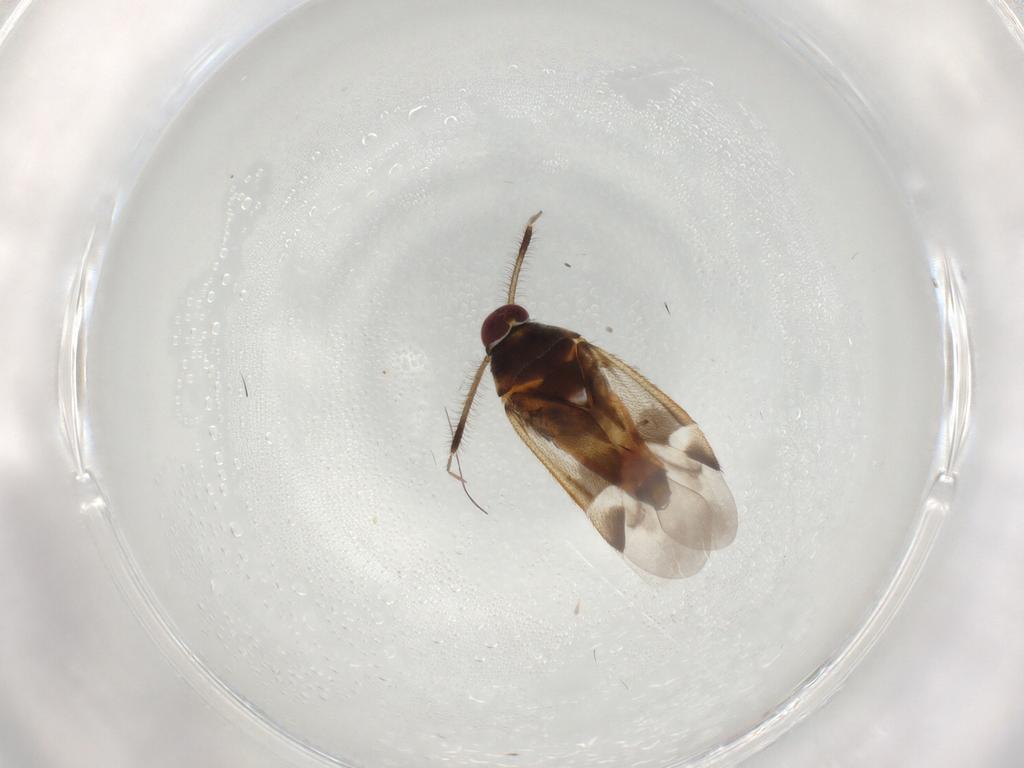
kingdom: Animalia
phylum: Arthropoda
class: Insecta
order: Hemiptera
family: Miridae
